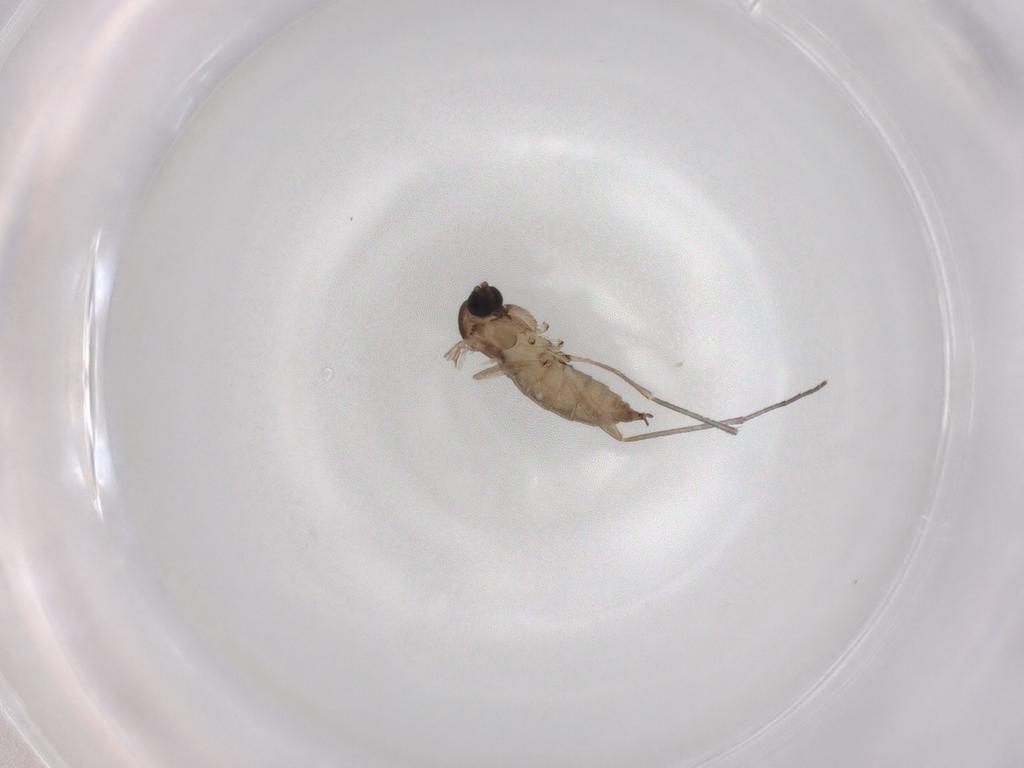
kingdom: Animalia
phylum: Arthropoda
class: Insecta
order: Diptera
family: Sciaridae
